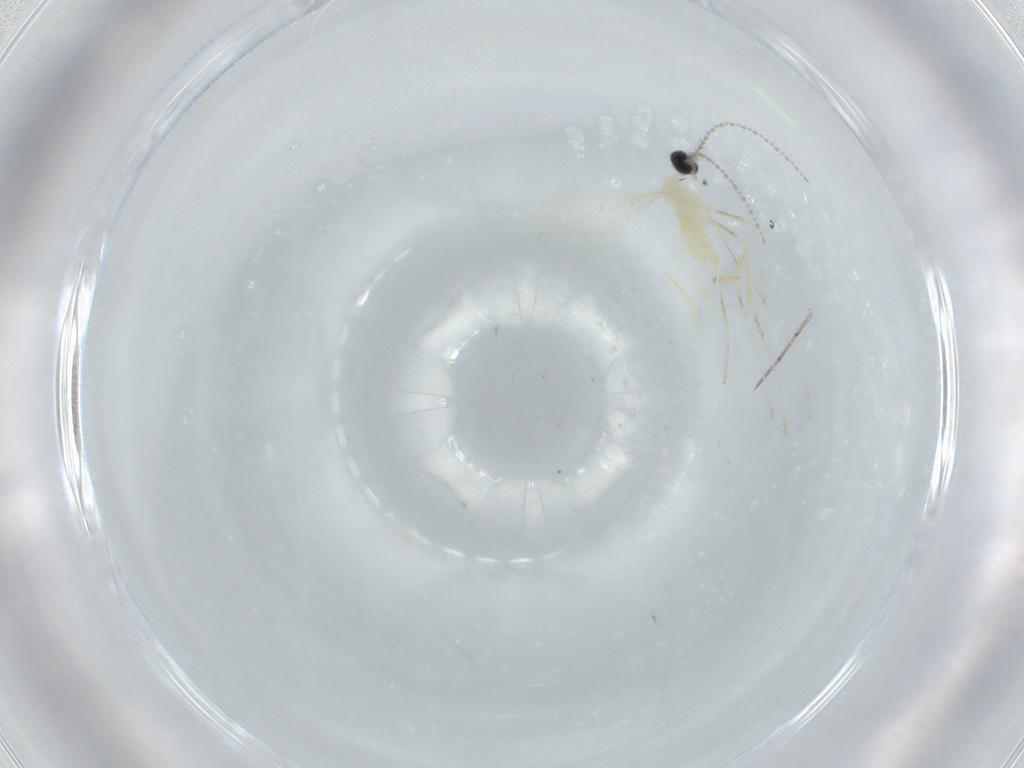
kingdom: Animalia
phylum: Arthropoda
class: Insecta
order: Diptera
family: Cecidomyiidae
